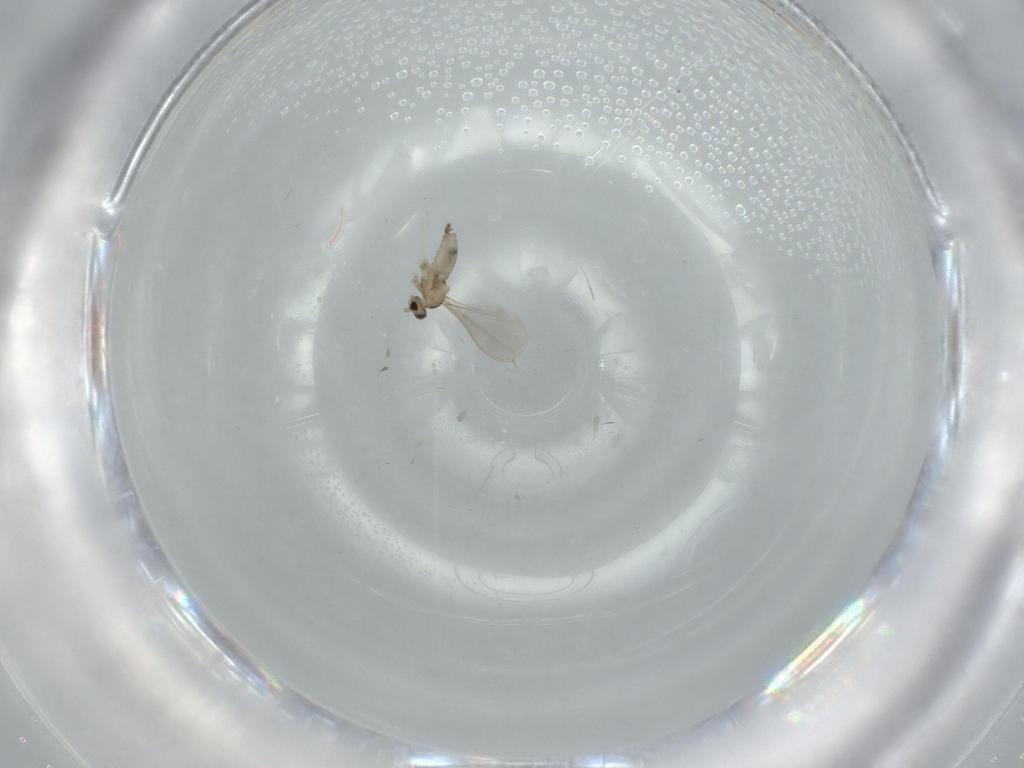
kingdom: Animalia
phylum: Arthropoda
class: Insecta
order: Diptera
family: Cecidomyiidae
